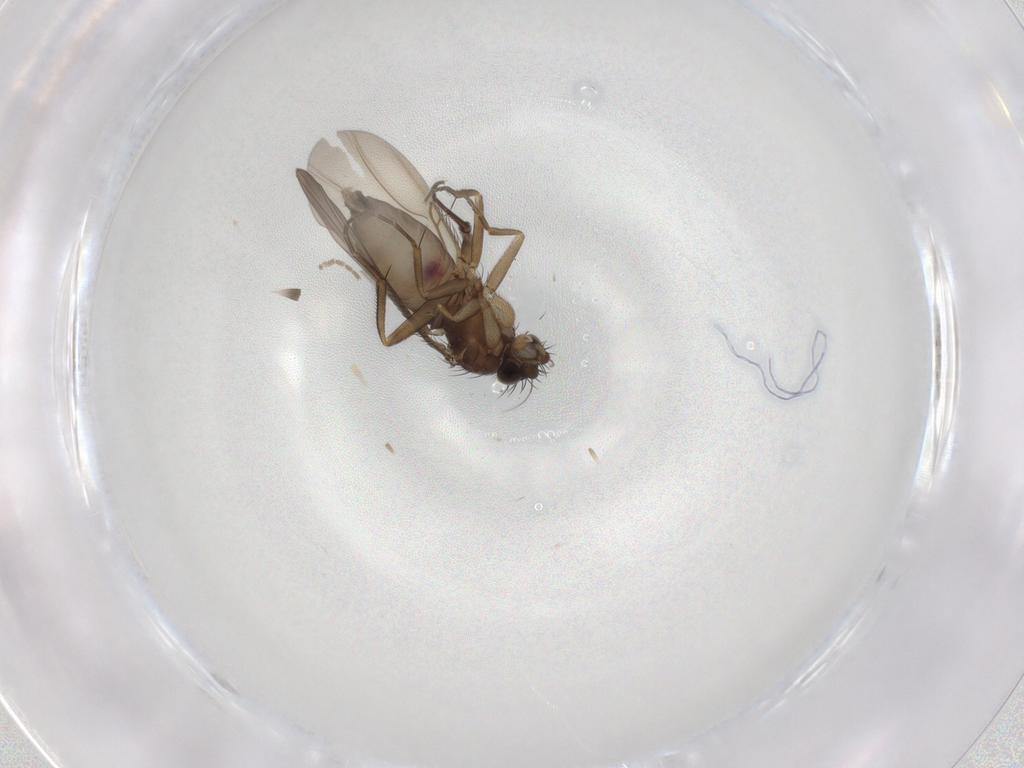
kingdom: Animalia
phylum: Arthropoda
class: Insecta
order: Diptera
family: Phoridae
